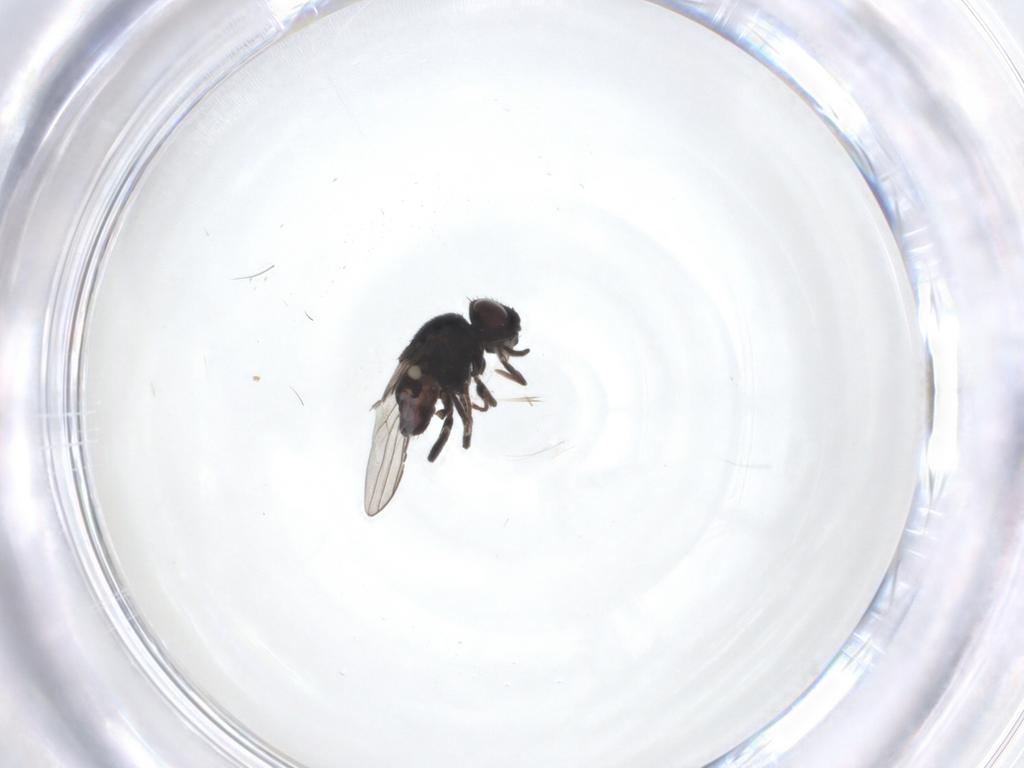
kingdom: Animalia
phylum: Arthropoda
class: Insecta
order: Diptera
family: Chloropidae
